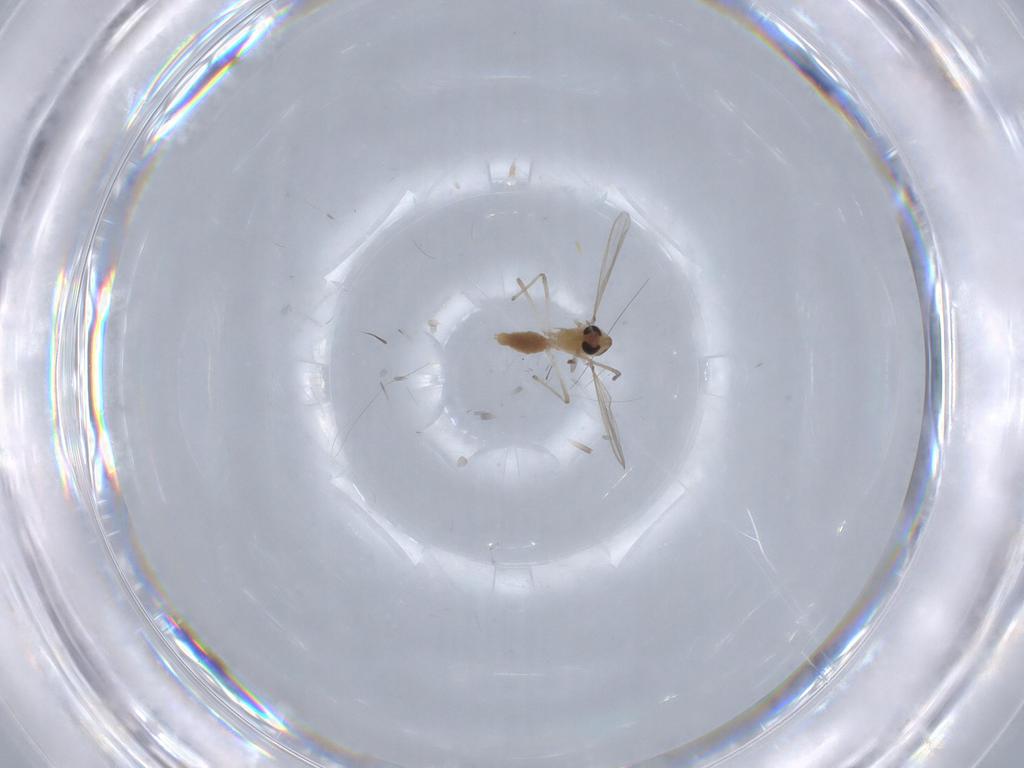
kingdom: Animalia
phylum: Arthropoda
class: Insecta
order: Diptera
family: Chironomidae
